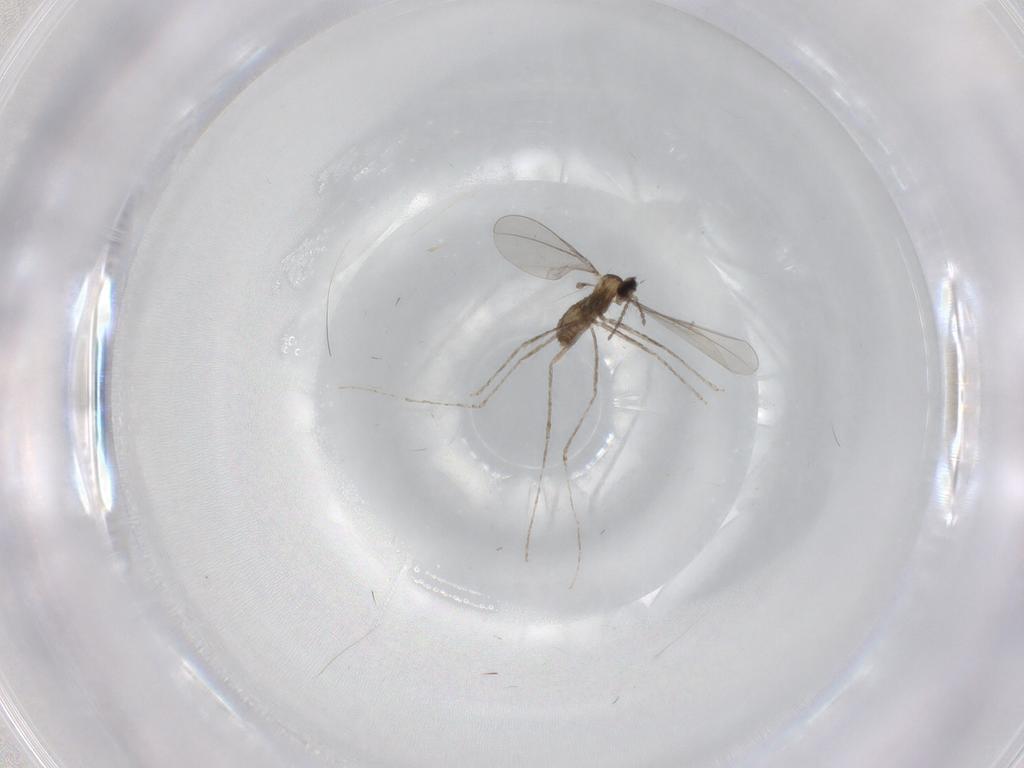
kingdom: Animalia
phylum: Arthropoda
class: Insecta
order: Diptera
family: Cecidomyiidae
